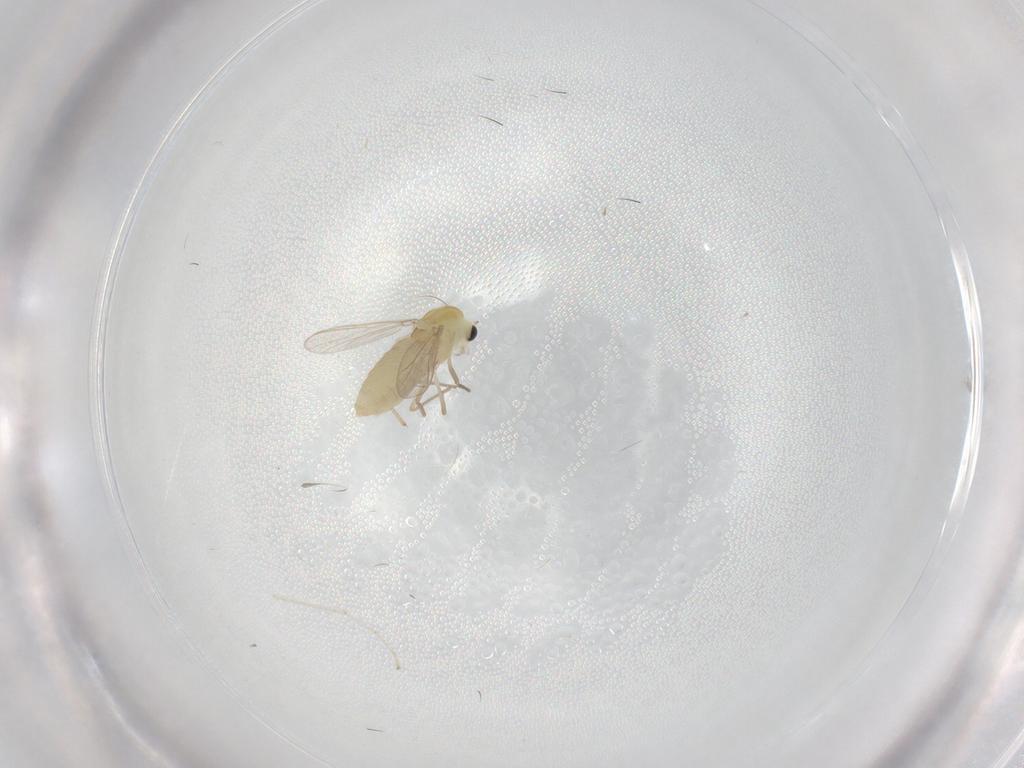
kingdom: Animalia
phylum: Arthropoda
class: Insecta
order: Diptera
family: Chironomidae
